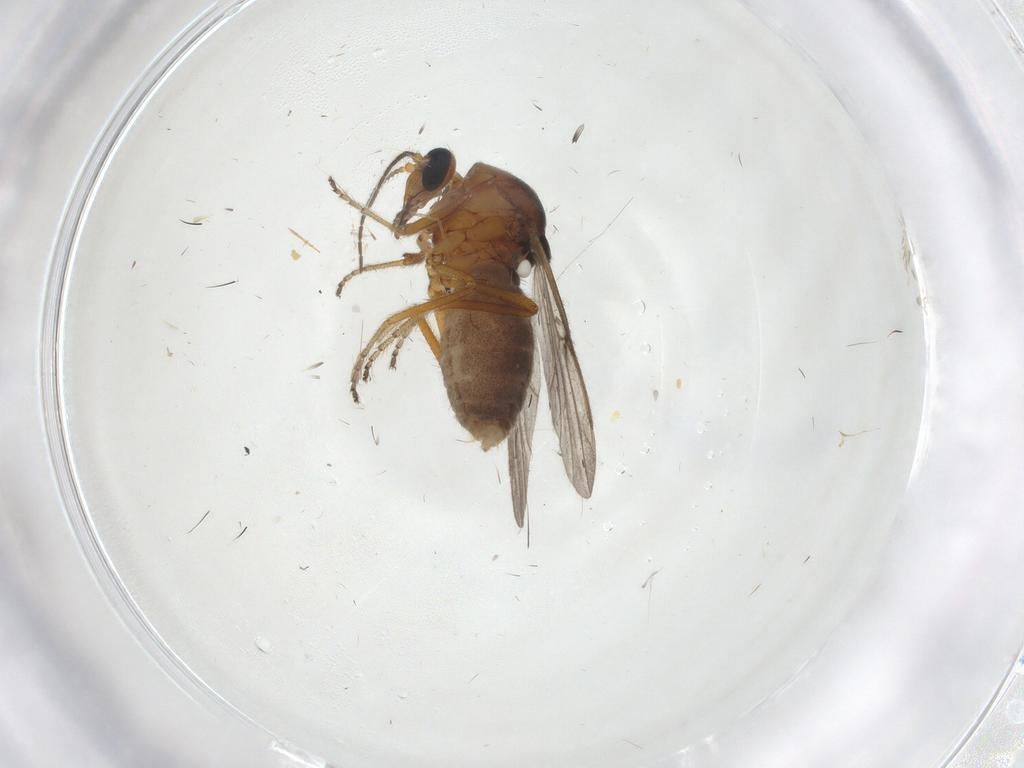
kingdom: Animalia
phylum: Arthropoda
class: Insecta
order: Diptera
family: Ceratopogonidae
